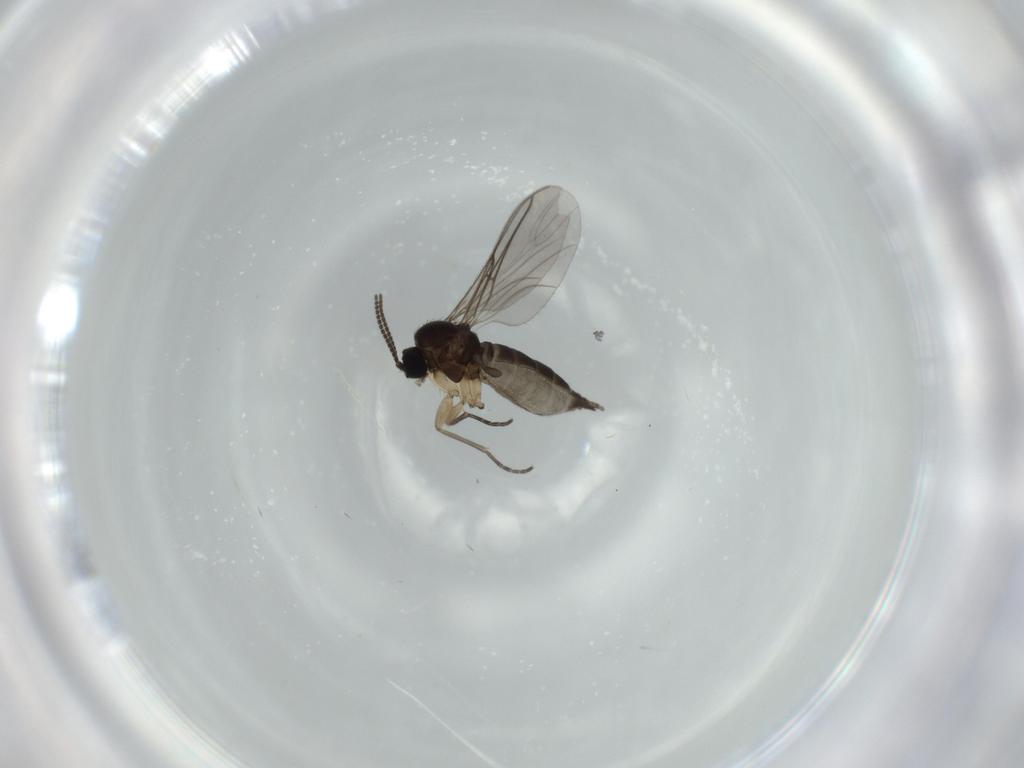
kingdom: Animalia
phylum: Arthropoda
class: Insecta
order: Diptera
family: Sciaridae
